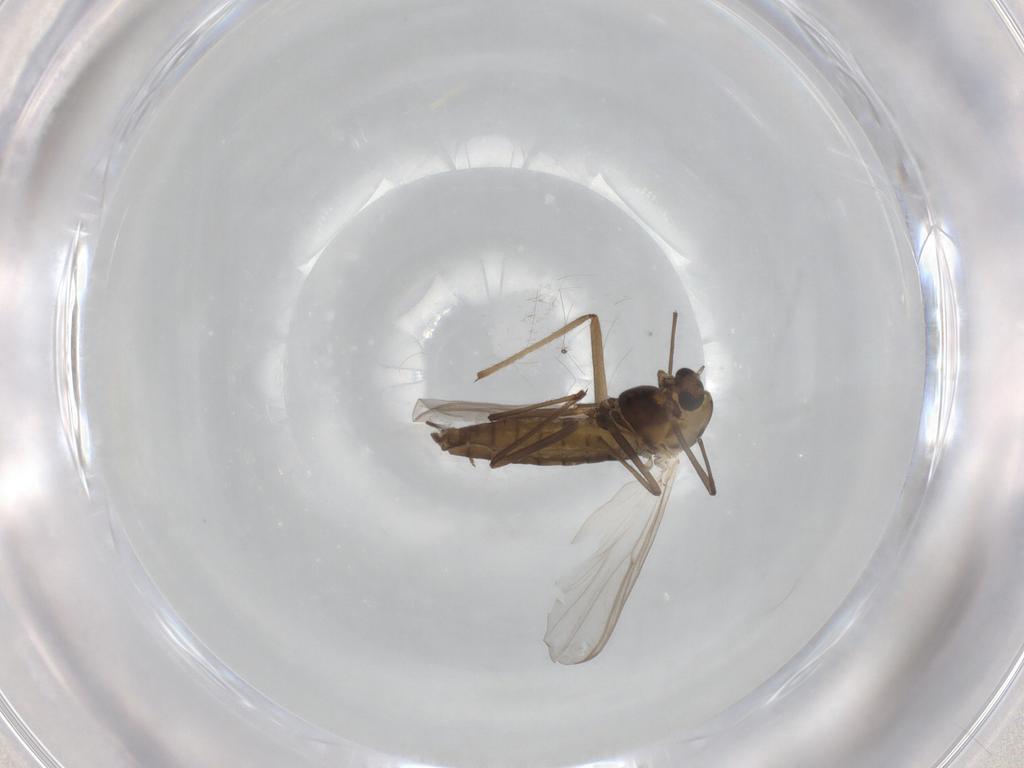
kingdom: Animalia
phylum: Arthropoda
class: Insecta
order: Diptera
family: Chironomidae
